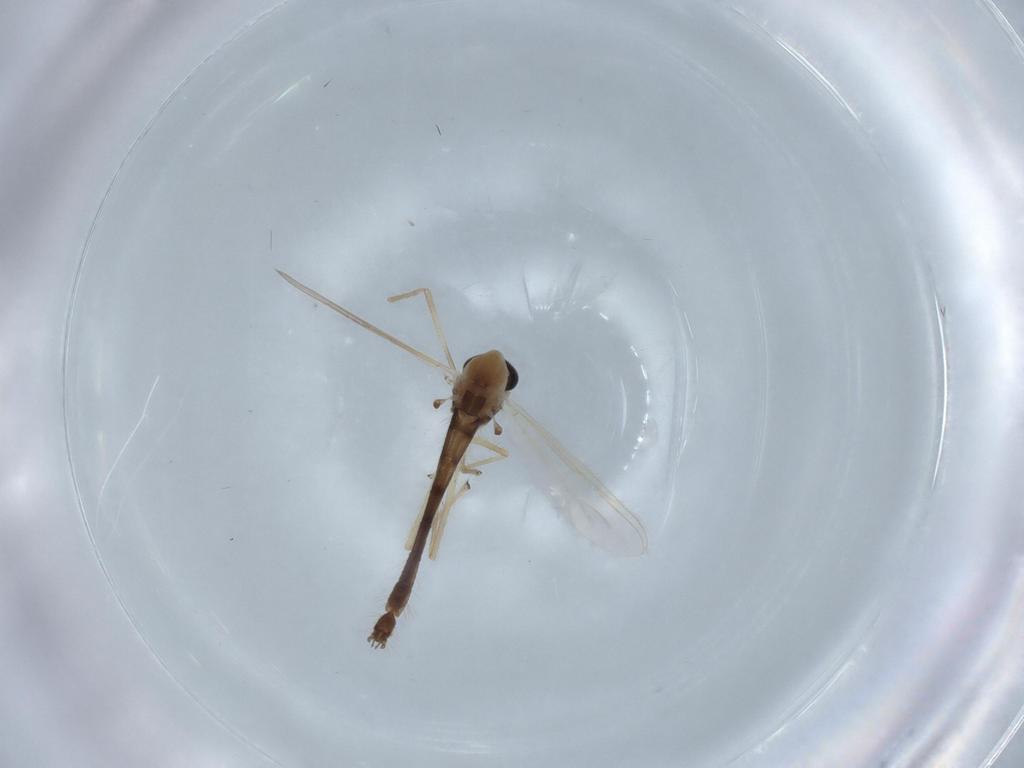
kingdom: Animalia
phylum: Arthropoda
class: Insecta
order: Diptera
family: Chironomidae
